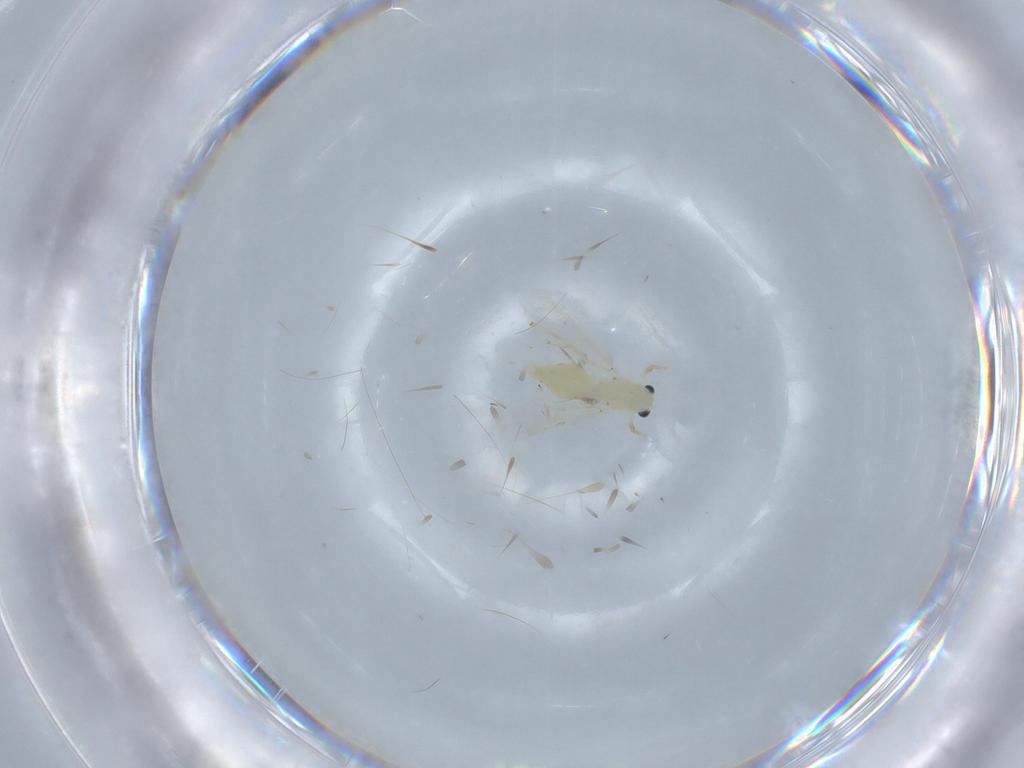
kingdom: Animalia
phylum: Arthropoda
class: Insecta
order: Diptera
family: Chironomidae
